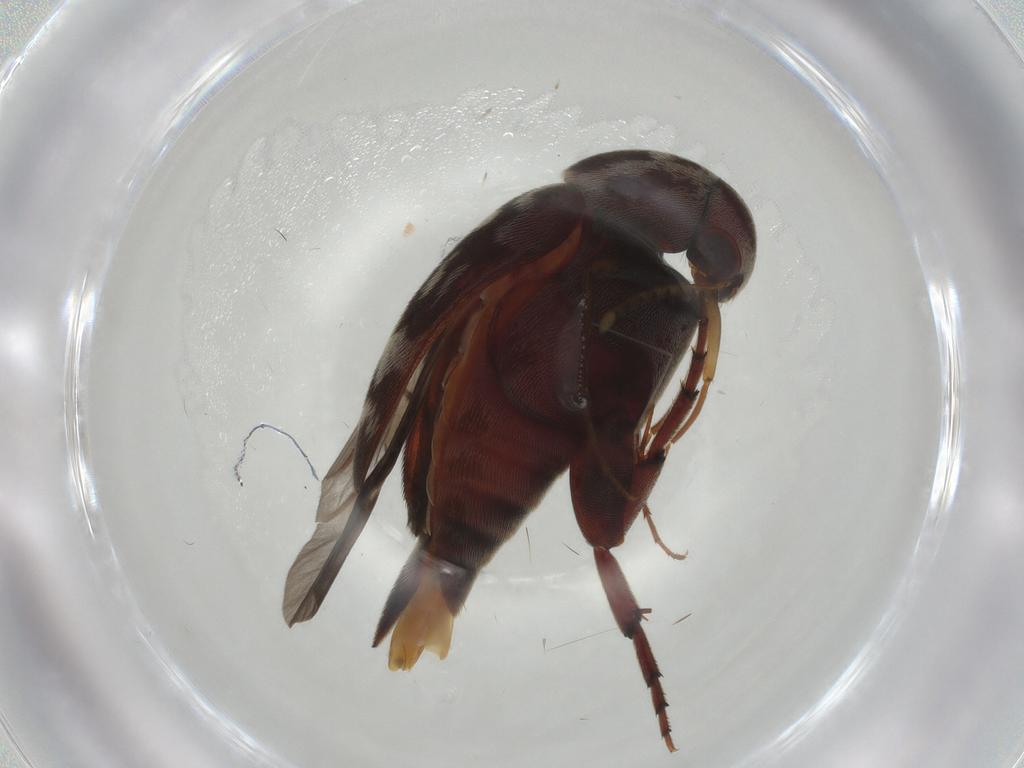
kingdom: Animalia
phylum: Arthropoda
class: Insecta
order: Coleoptera
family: Mordellidae
